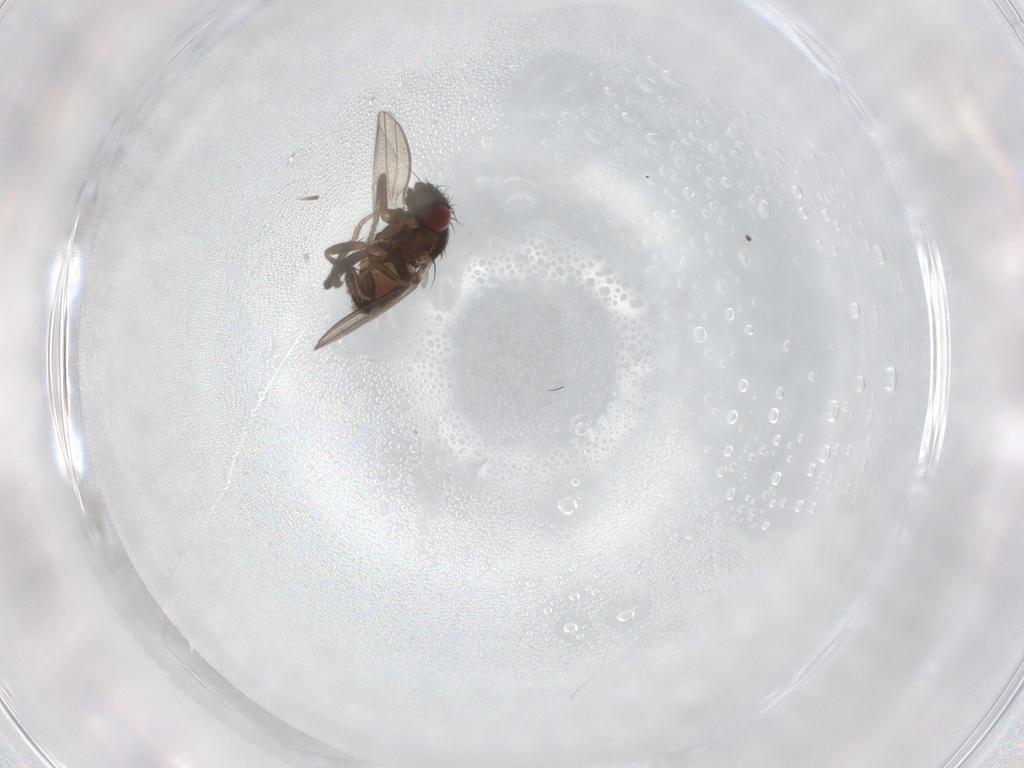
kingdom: Animalia
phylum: Arthropoda
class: Insecta
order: Diptera
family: Milichiidae
